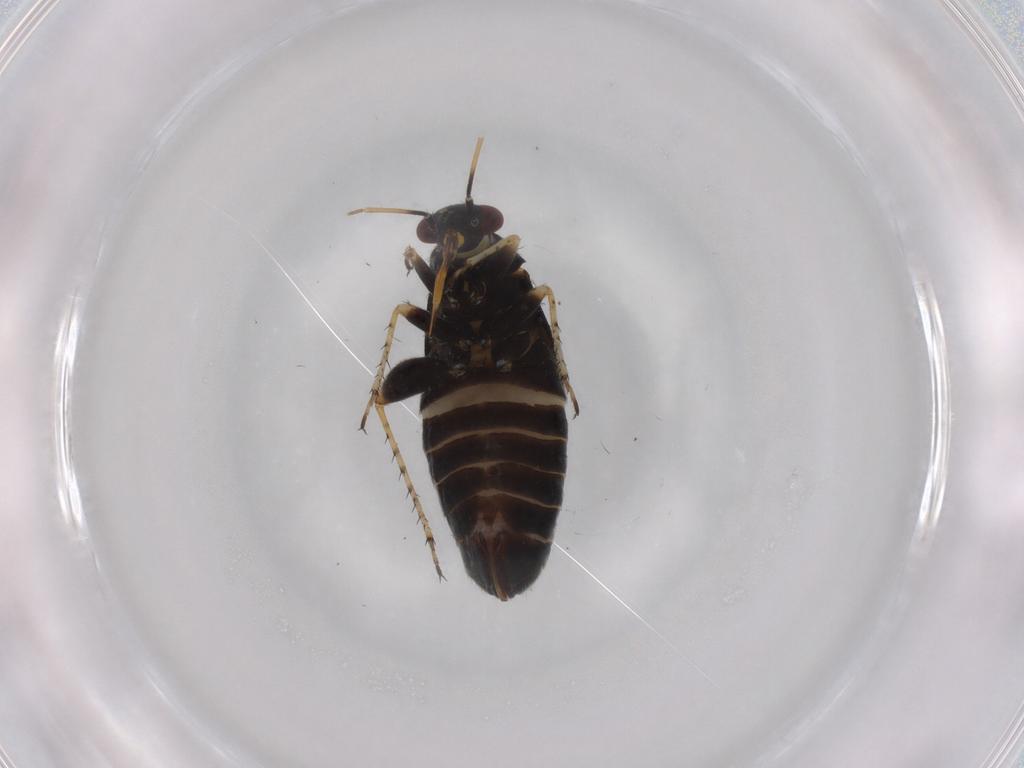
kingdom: Animalia
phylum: Arthropoda
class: Insecta
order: Hemiptera
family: Miridae
